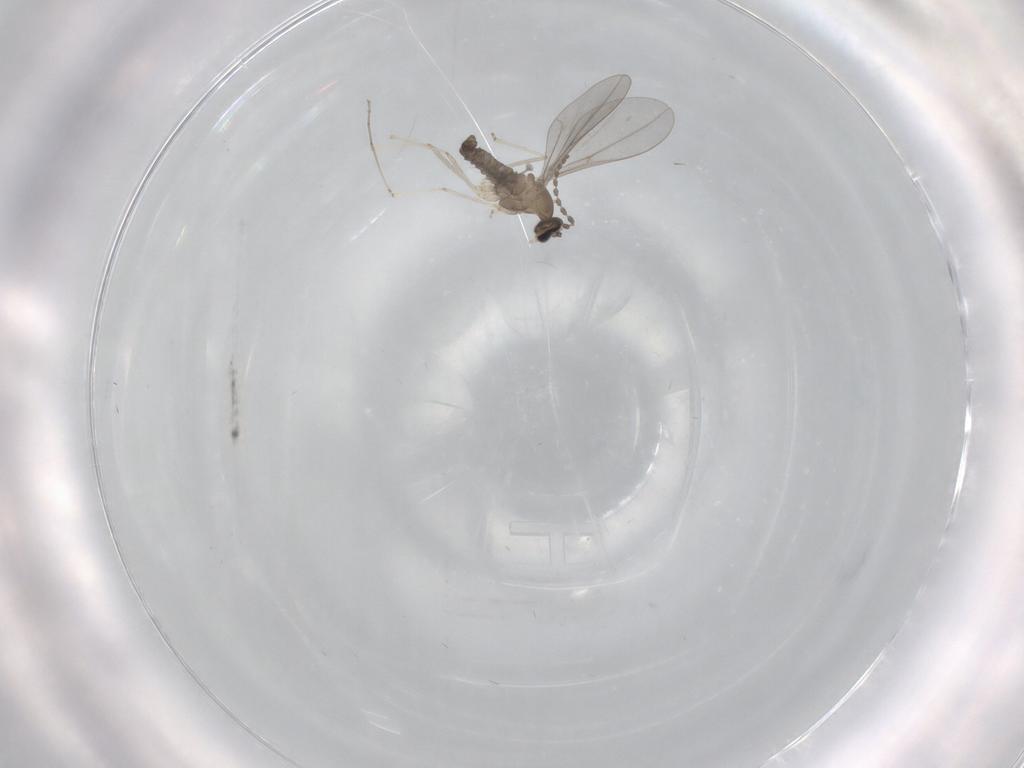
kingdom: Animalia
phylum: Arthropoda
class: Insecta
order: Diptera
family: Cecidomyiidae
